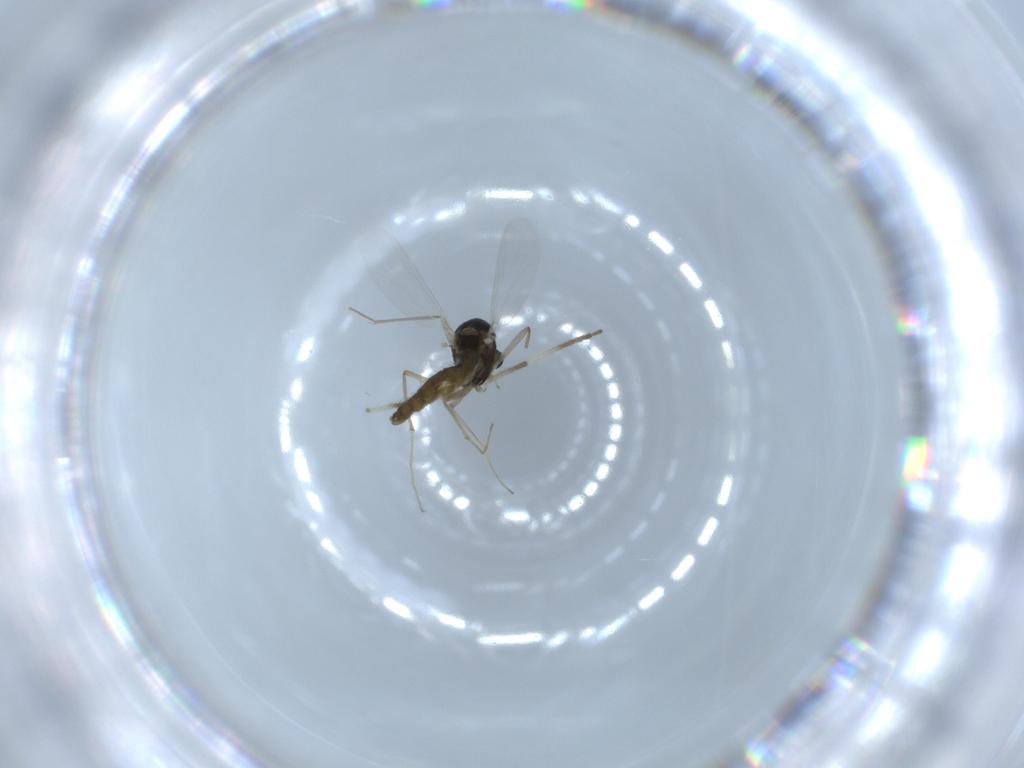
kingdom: Animalia
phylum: Arthropoda
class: Insecta
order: Diptera
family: Chironomidae
